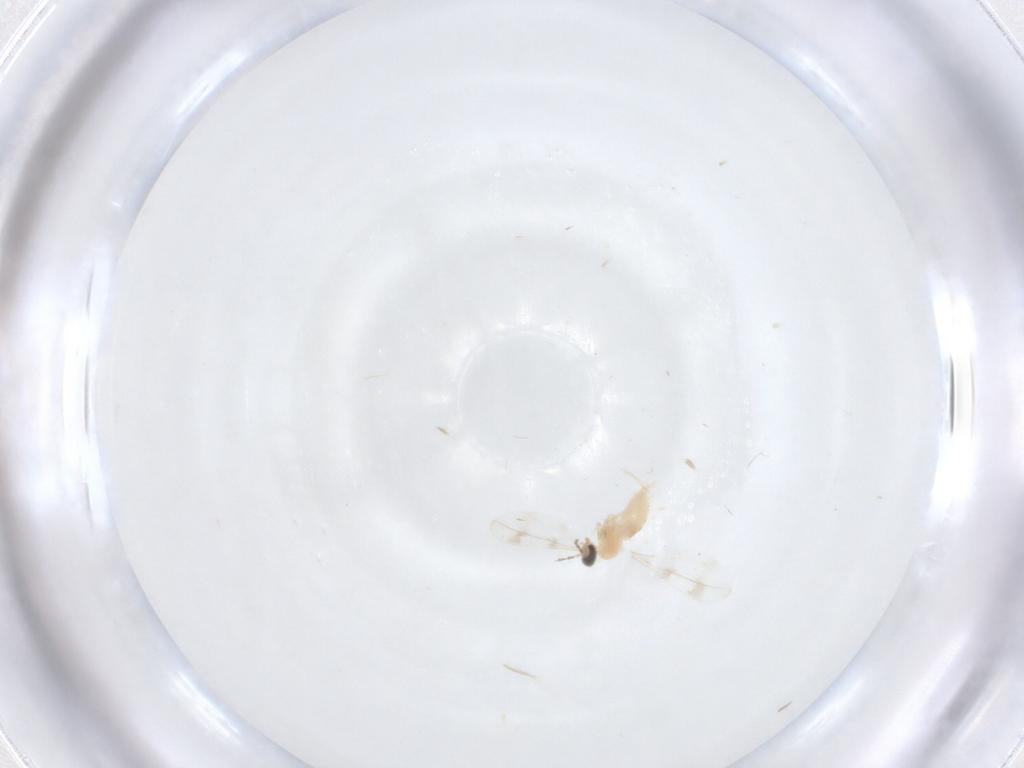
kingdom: Animalia
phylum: Arthropoda
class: Insecta
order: Diptera
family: Cecidomyiidae
